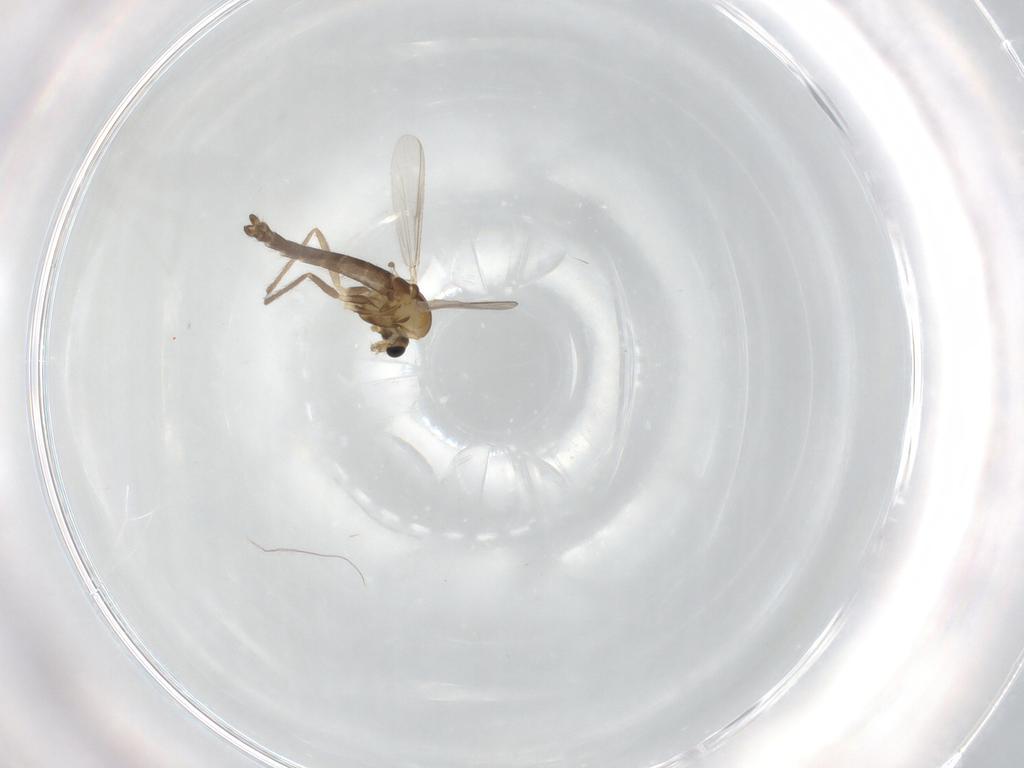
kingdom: Animalia
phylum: Arthropoda
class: Insecta
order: Diptera
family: Chironomidae
